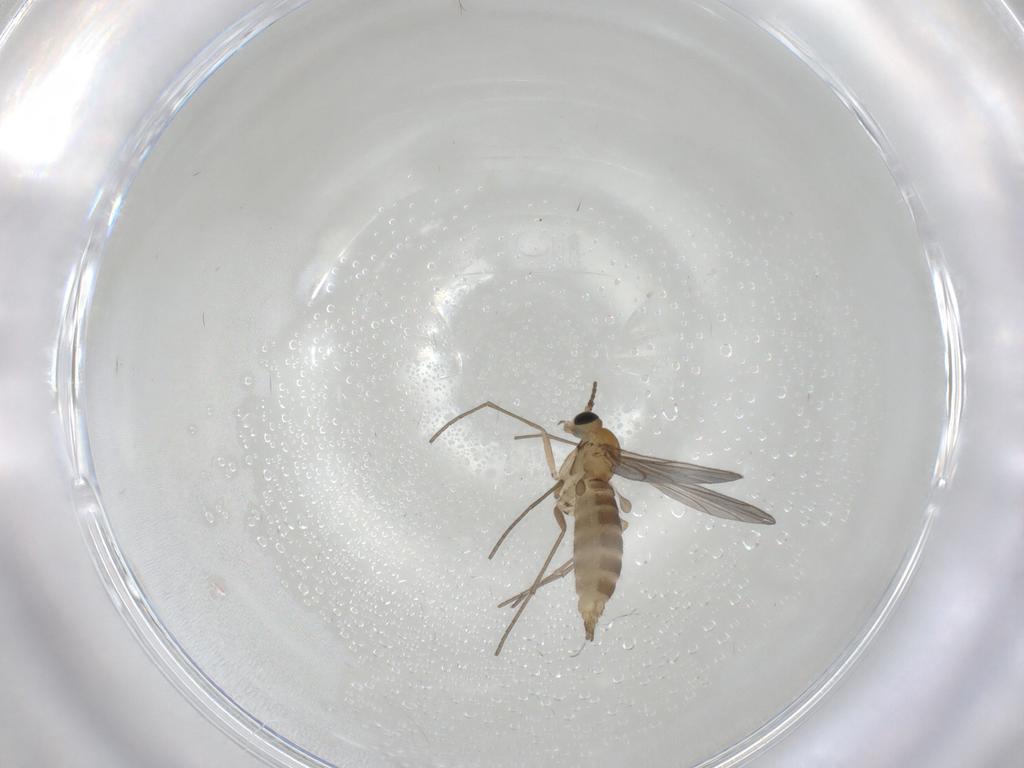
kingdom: Animalia
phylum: Arthropoda
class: Insecta
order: Diptera
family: Sciaridae
